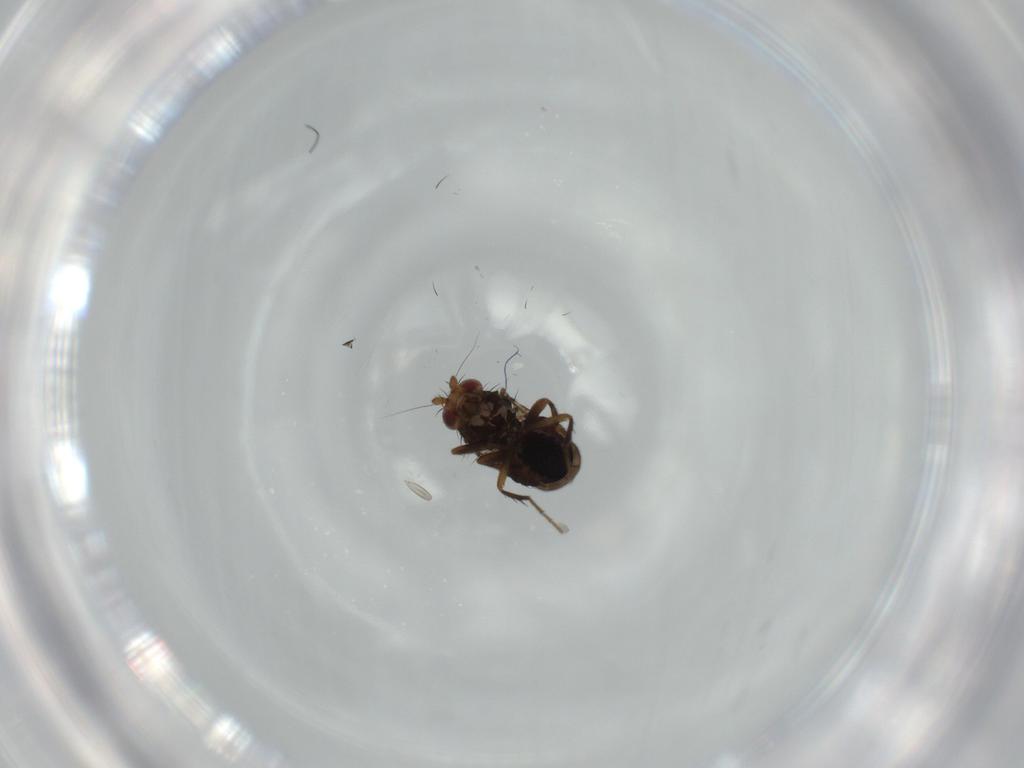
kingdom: Animalia
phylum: Arthropoda
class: Insecta
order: Diptera
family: Sphaeroceridae
